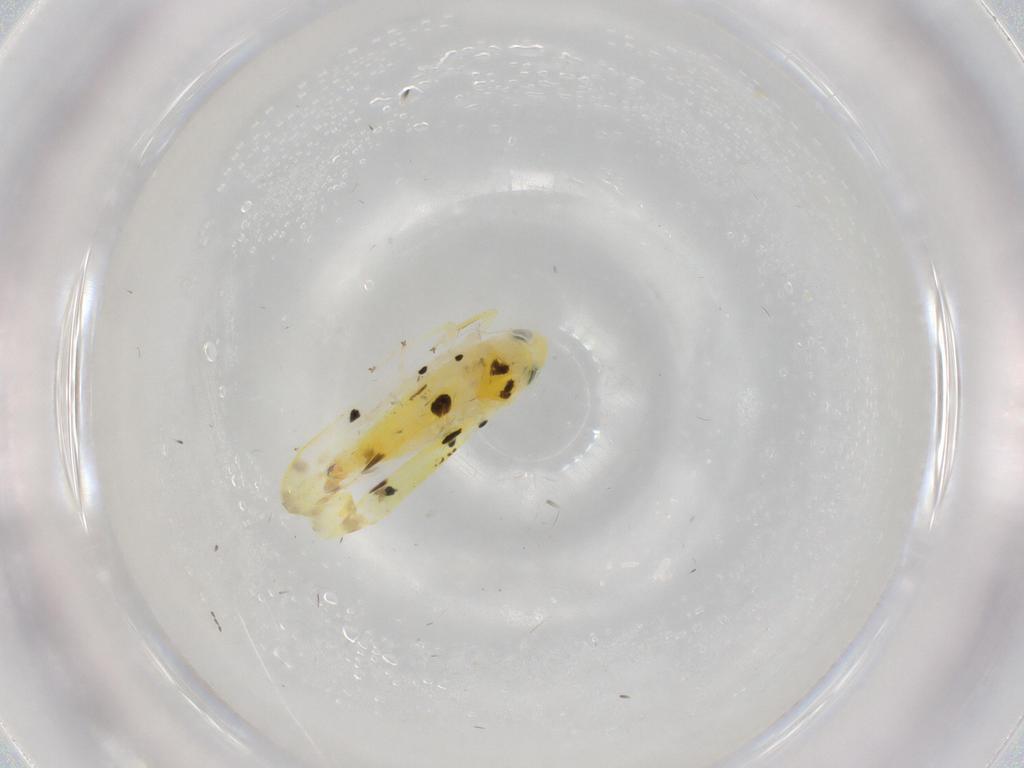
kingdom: Animalia
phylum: Arthropoda
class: Insecta
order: Hemiptera
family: Cicadellidae
